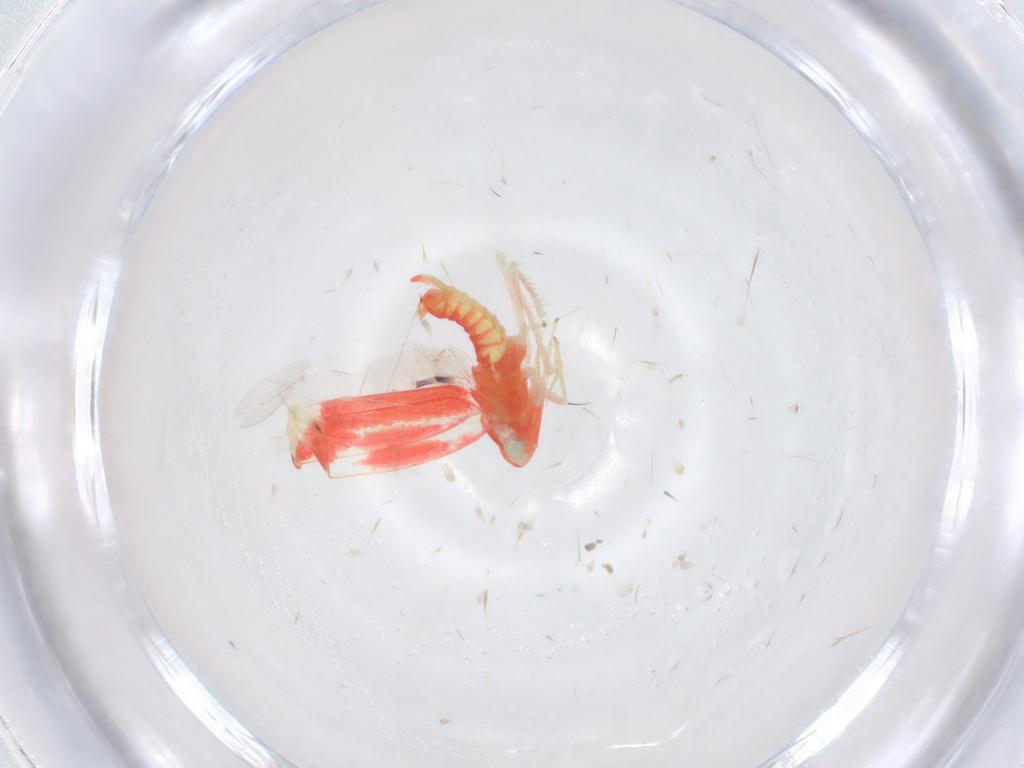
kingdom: Animalia
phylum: Arthropoda
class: Insecta
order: Hemiptera
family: Cicadellidae
